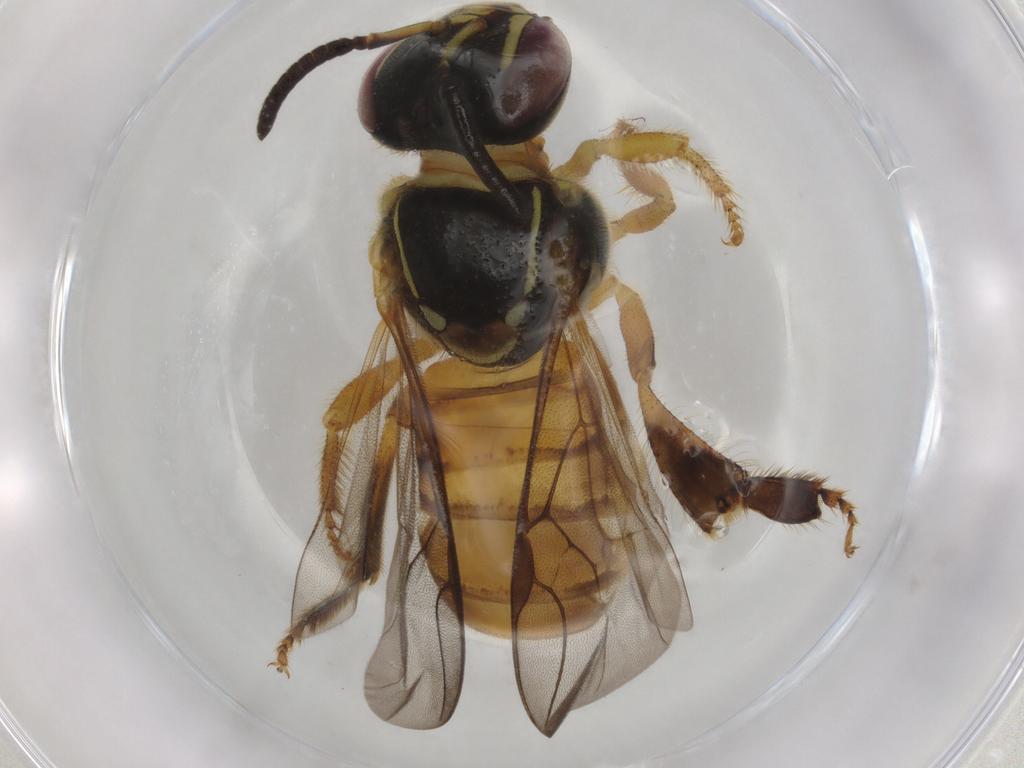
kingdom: Animalia
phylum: Arthropoda
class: Insecta
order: Hymenoptera
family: Apidae
